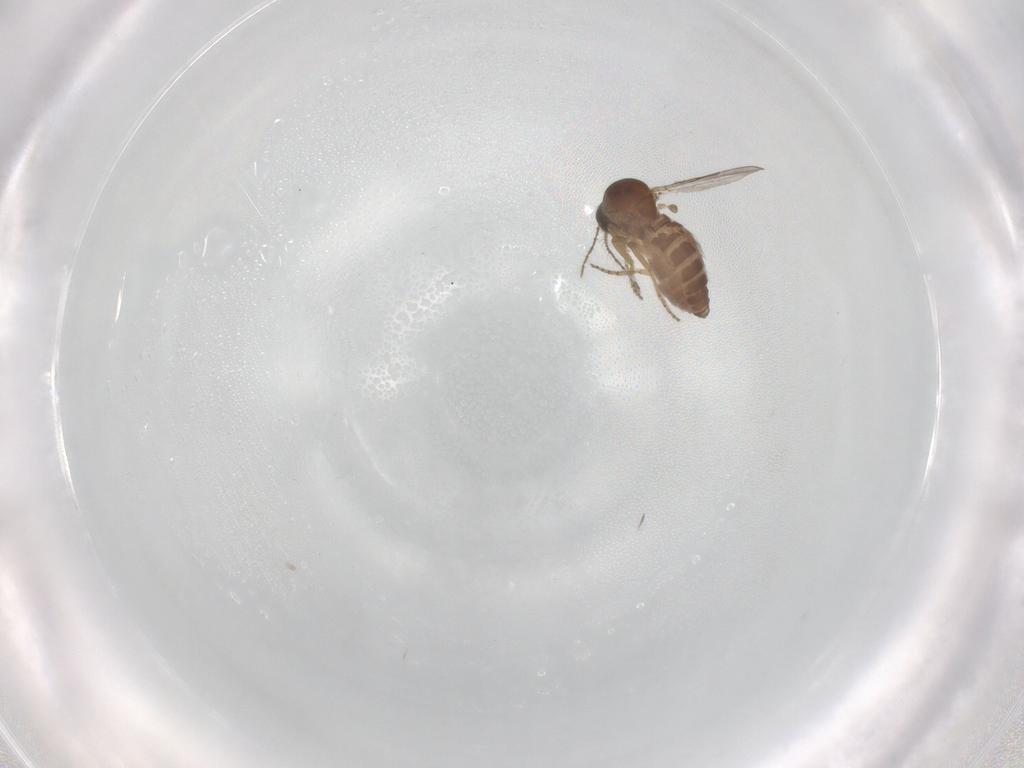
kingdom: Animalia
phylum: Arthropoda
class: Insecta
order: Diptera
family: Ceratopogonidae
